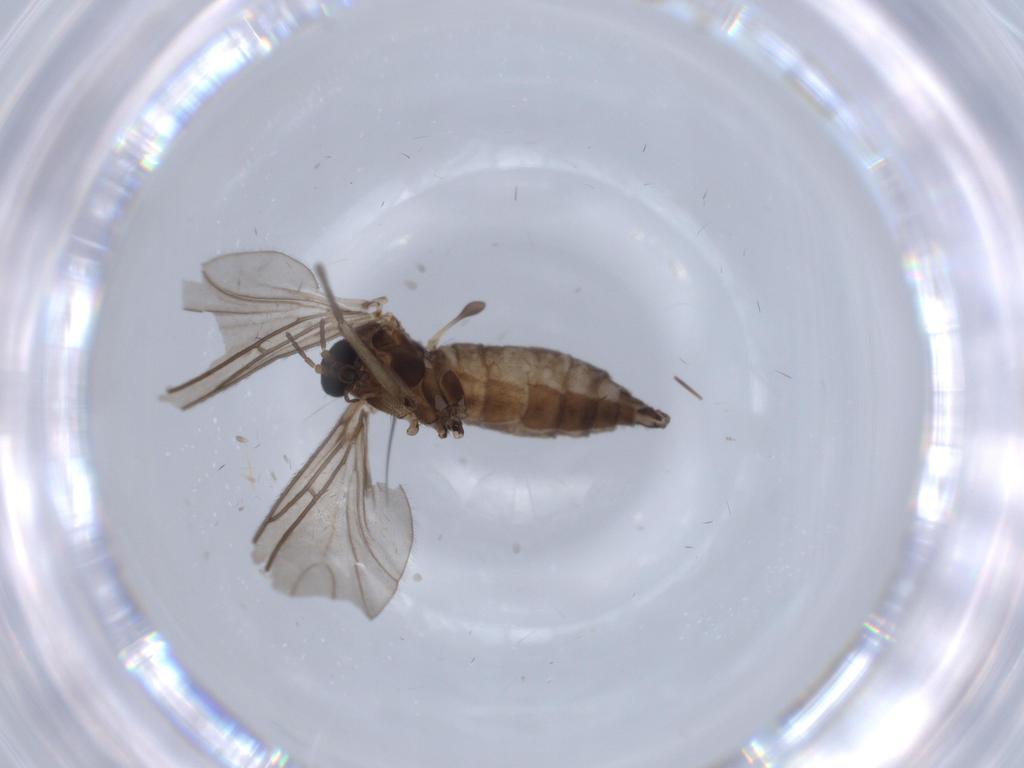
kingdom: Animalia
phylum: Arthropoda
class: Insecta
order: Diptera
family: Sciaridae
